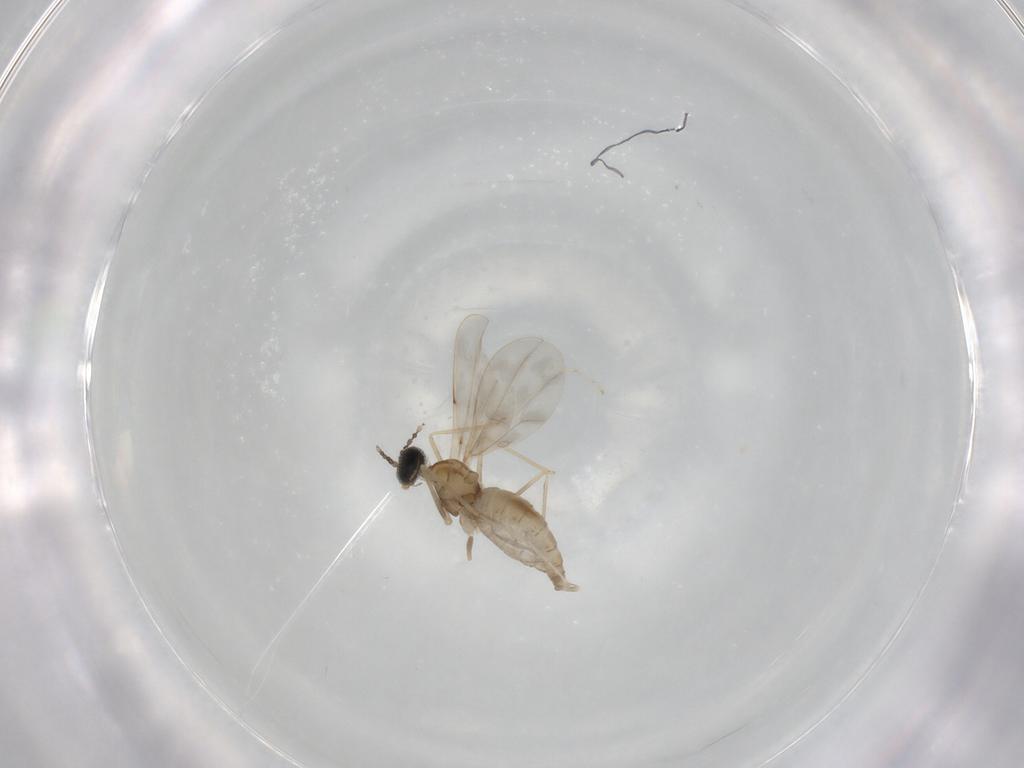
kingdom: Animalia
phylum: Arthropoda
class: Insecta
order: Diptera
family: Cecidomyiidae
